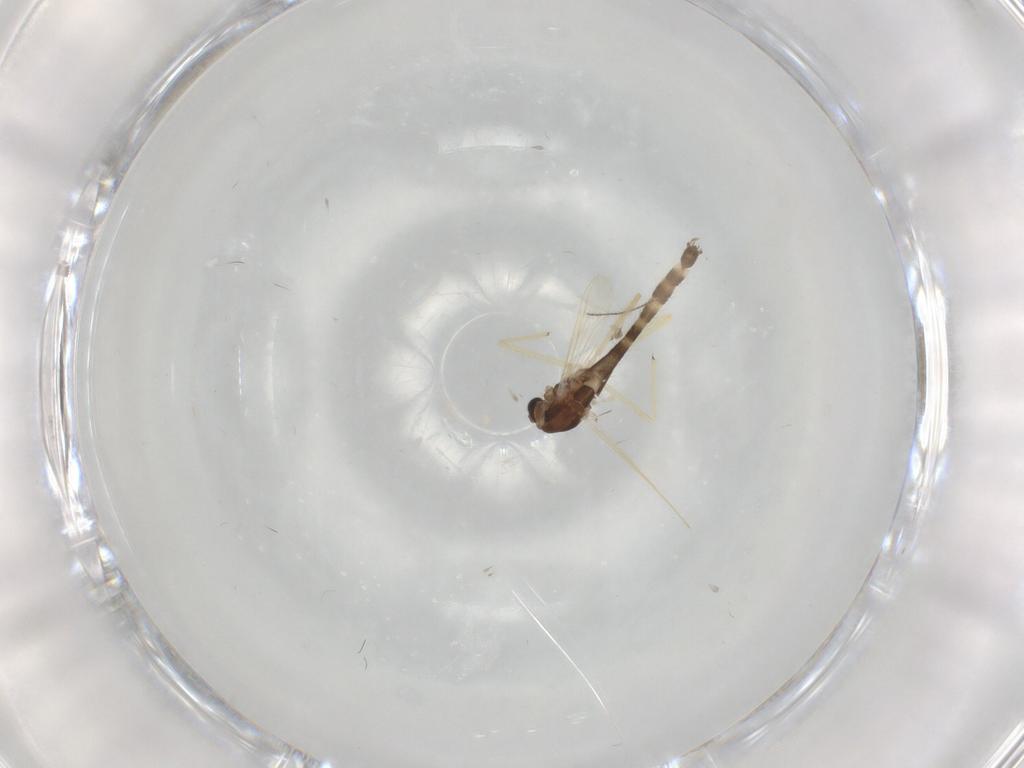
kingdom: Animalia
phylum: Arthropoda
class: Insecta
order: Diptera
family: Chironomidae
